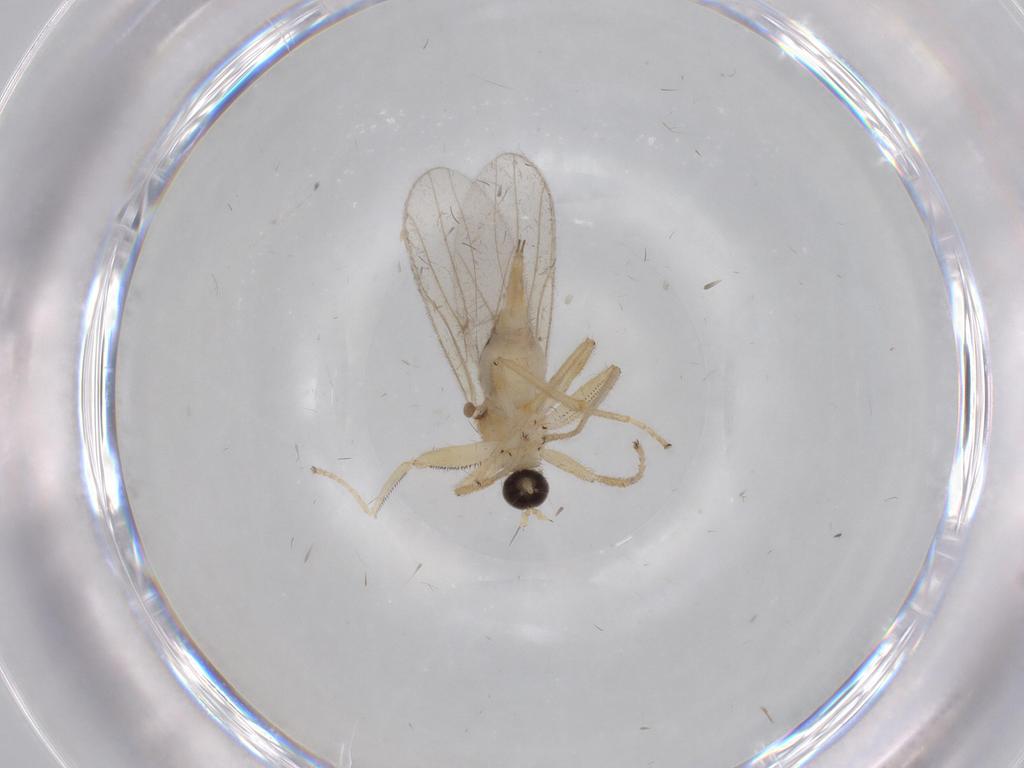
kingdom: Animalia
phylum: Arthropoda
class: Insecta
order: Diptera
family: Hybotidae
